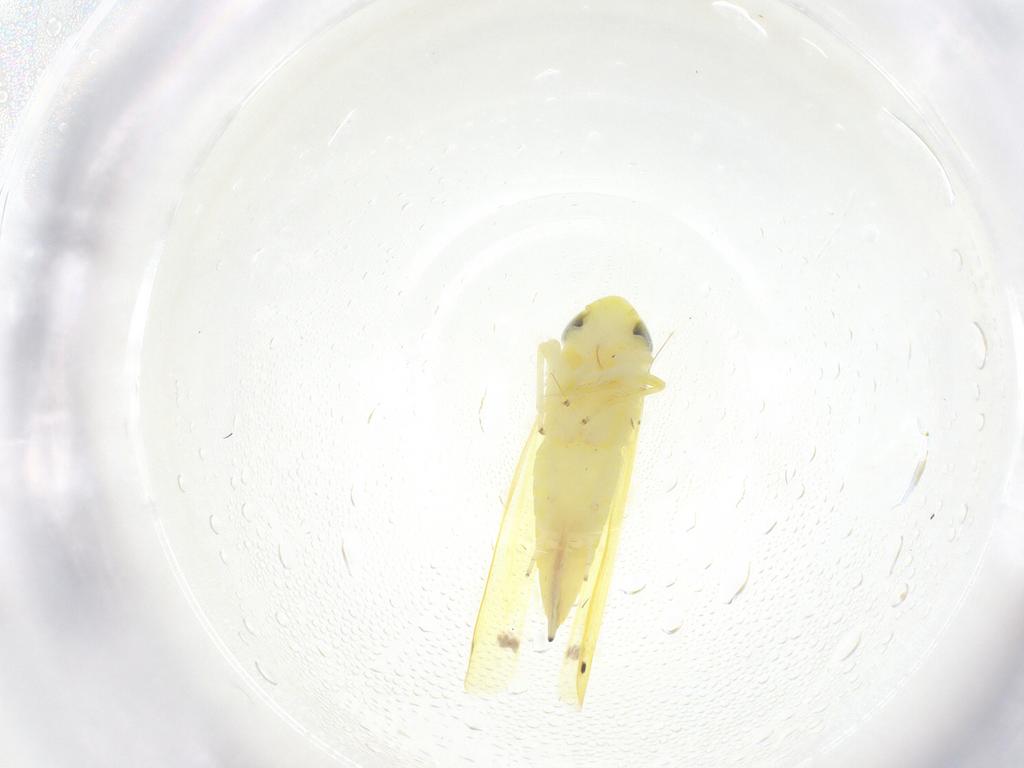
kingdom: Animalia
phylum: Arthropoda
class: Insecta
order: Hemiptera
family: Cicadellidae
